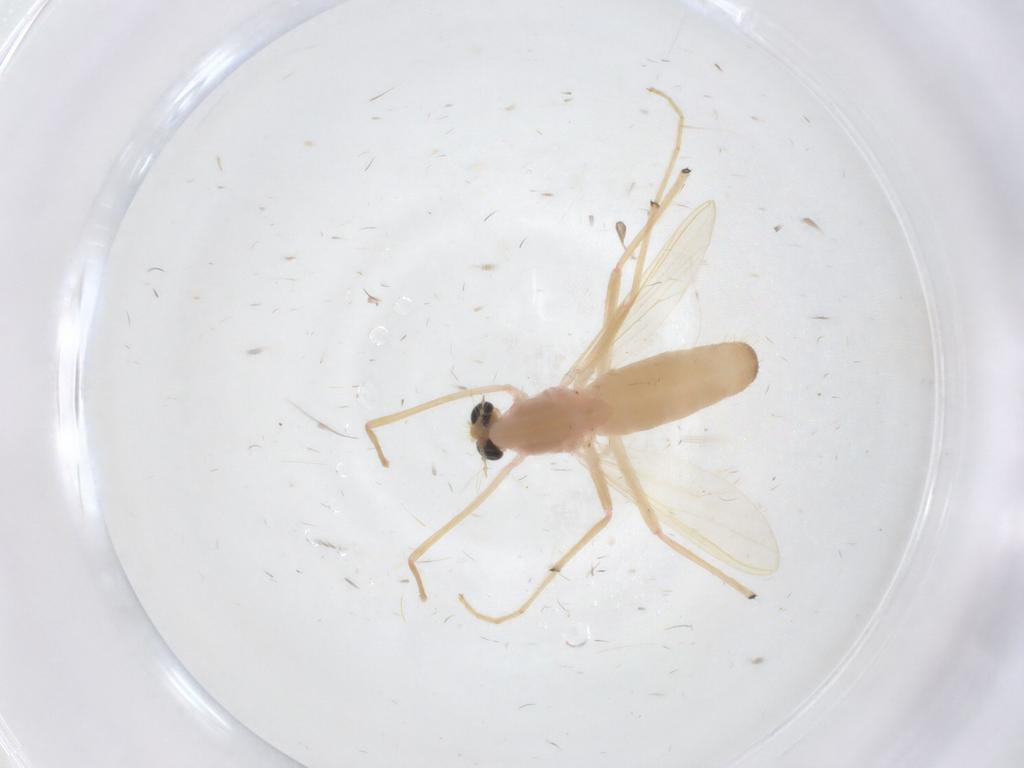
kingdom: Animalia
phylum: Arthropoda
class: Insecta
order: Diptera
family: Chironomidae
